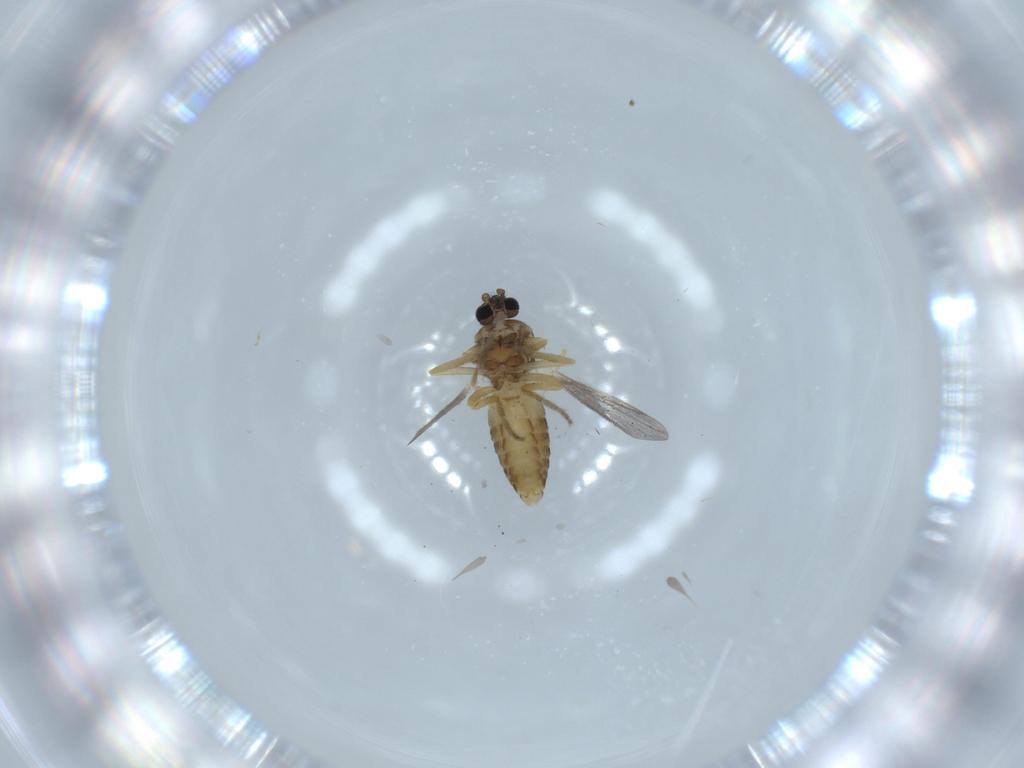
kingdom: Animalia
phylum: Arthropoda
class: Insecta
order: Diptera
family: Ceratopogonidae
